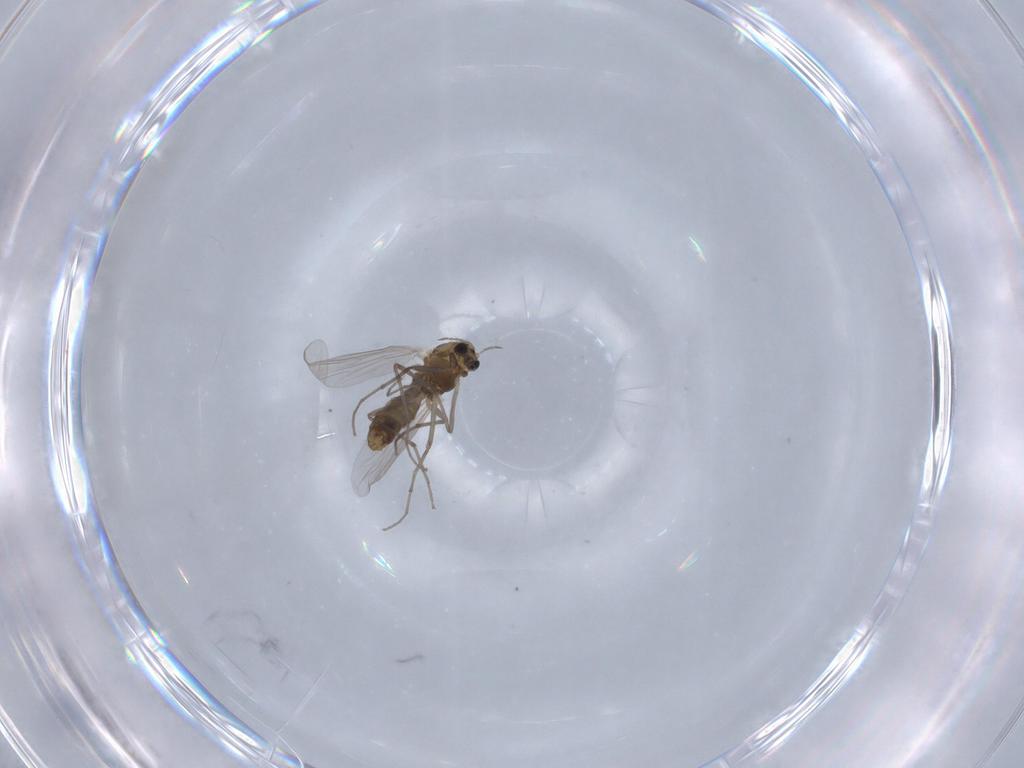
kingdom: Animalia
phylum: Arthropoda
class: Insecta
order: Diptera
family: Chironomidae
